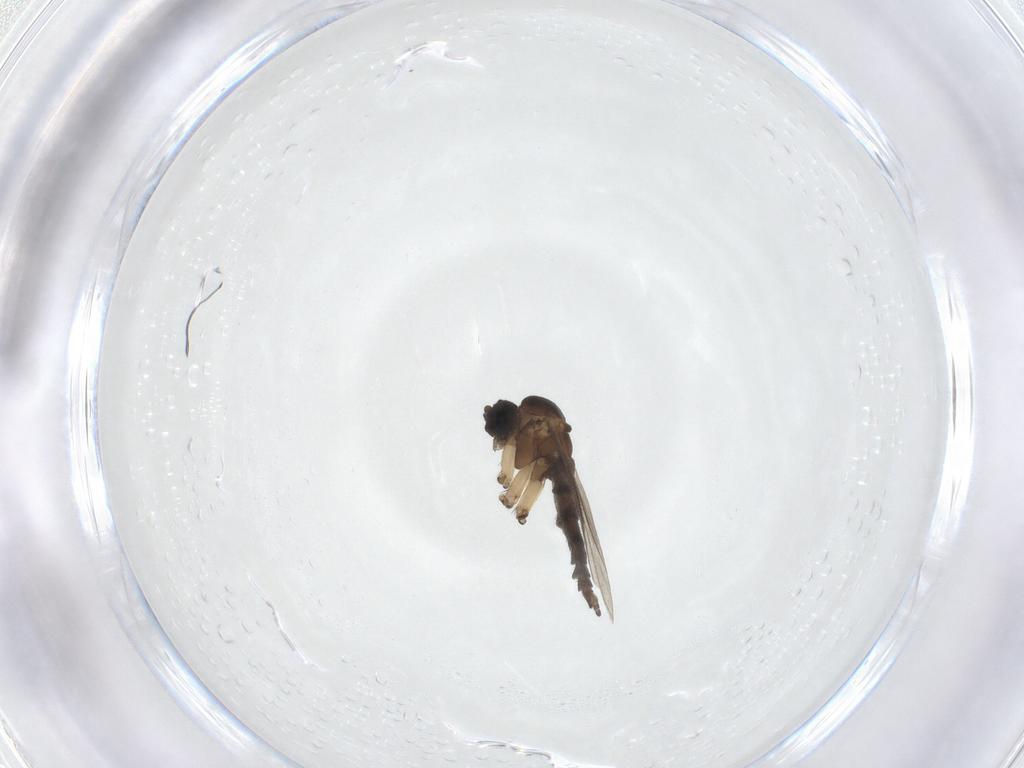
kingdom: Animalia
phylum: Arthropoda
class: Insecta
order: Diptera
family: Sciaridae
